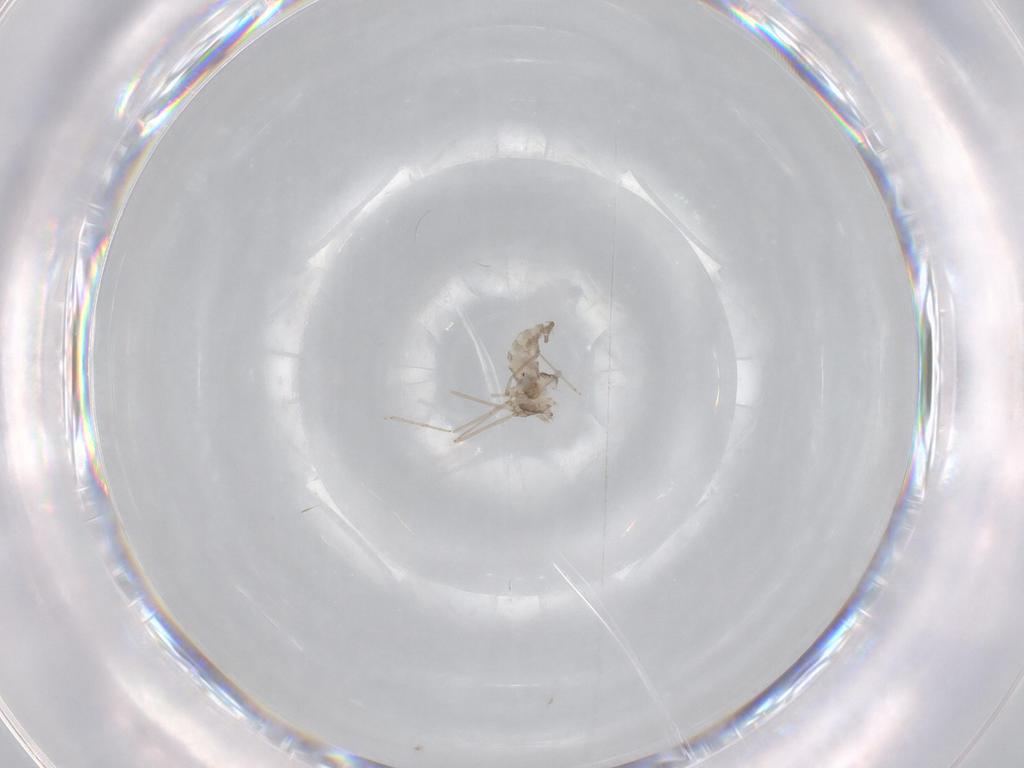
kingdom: Animalia
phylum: Arthropoda
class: Insecta
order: Diptera
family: Cecidomyiidae
